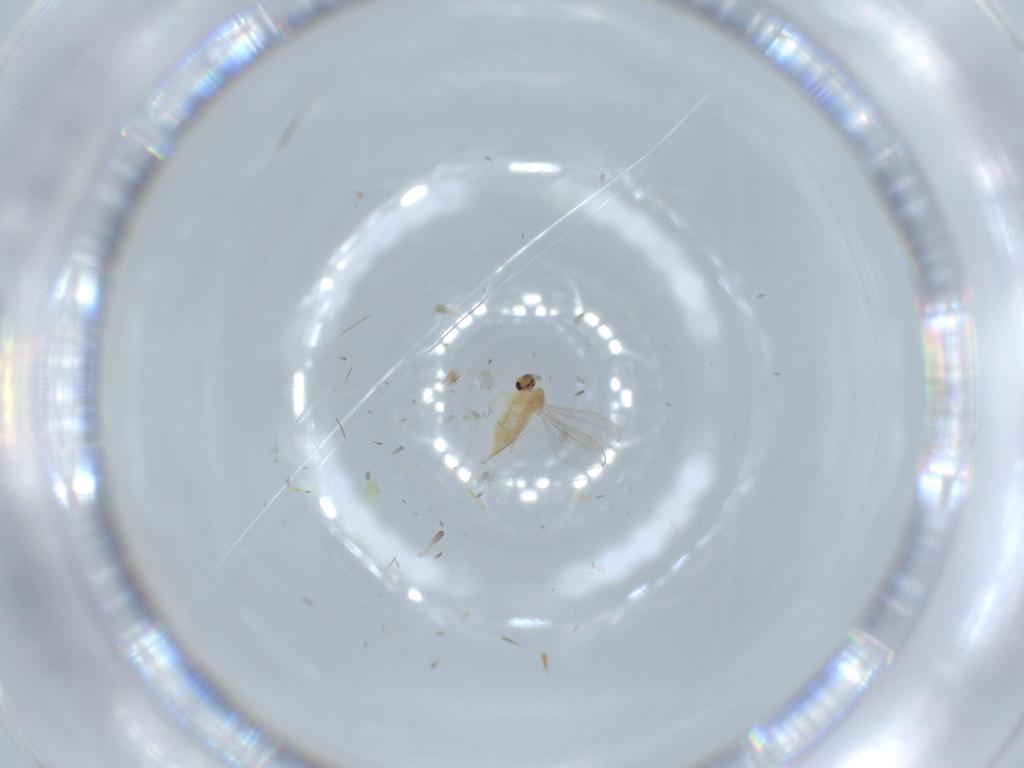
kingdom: Animalia
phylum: Arthropoda
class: Insecta
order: Diptera
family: Cecidomyiidae
